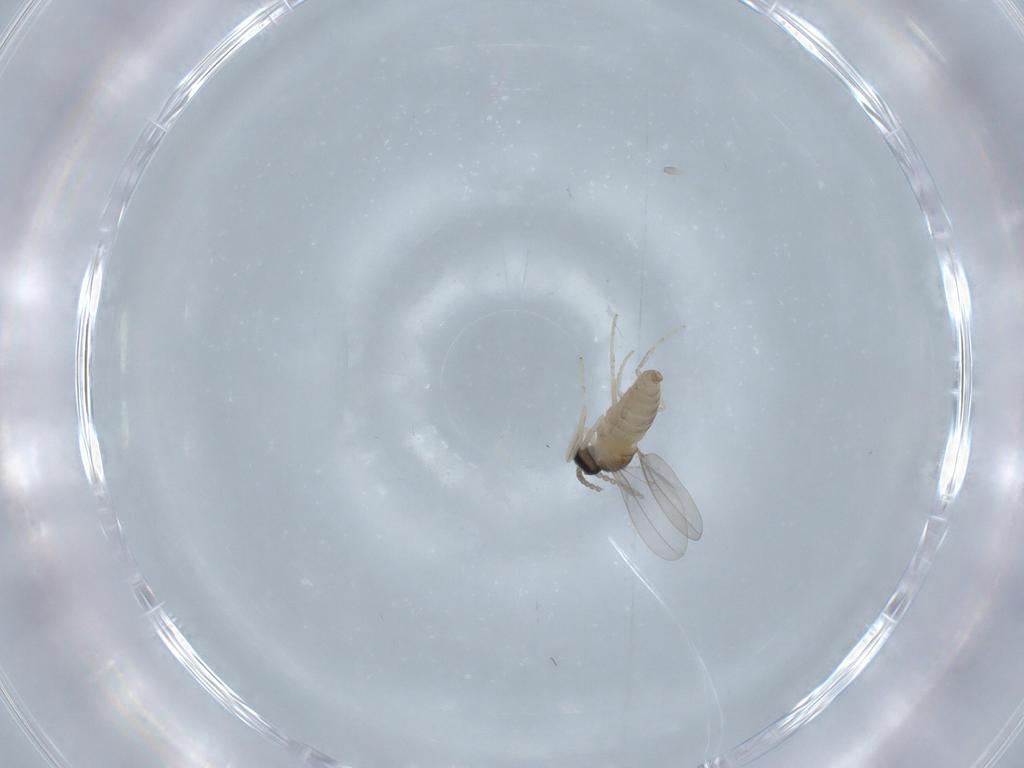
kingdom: Animalia
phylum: Arthropoda
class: Insecta
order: Diptera
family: Cecidomyiidae
